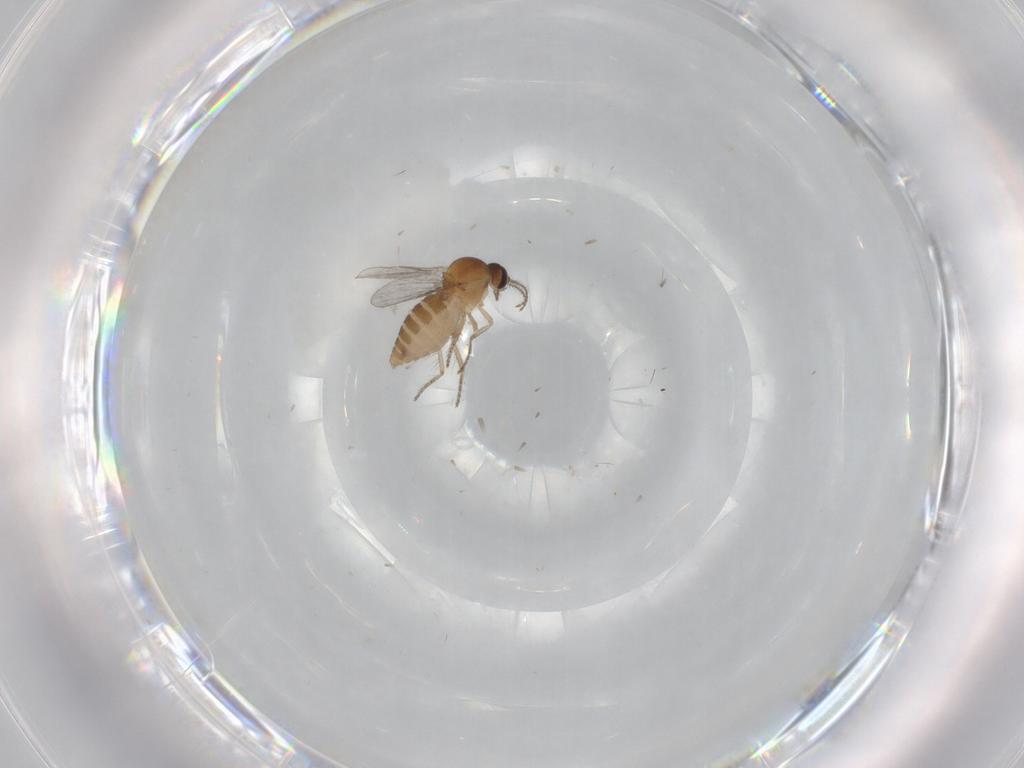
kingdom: Animalia
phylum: Arthropoda
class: Insecta
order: Diptera
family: Ceratopogonidae
